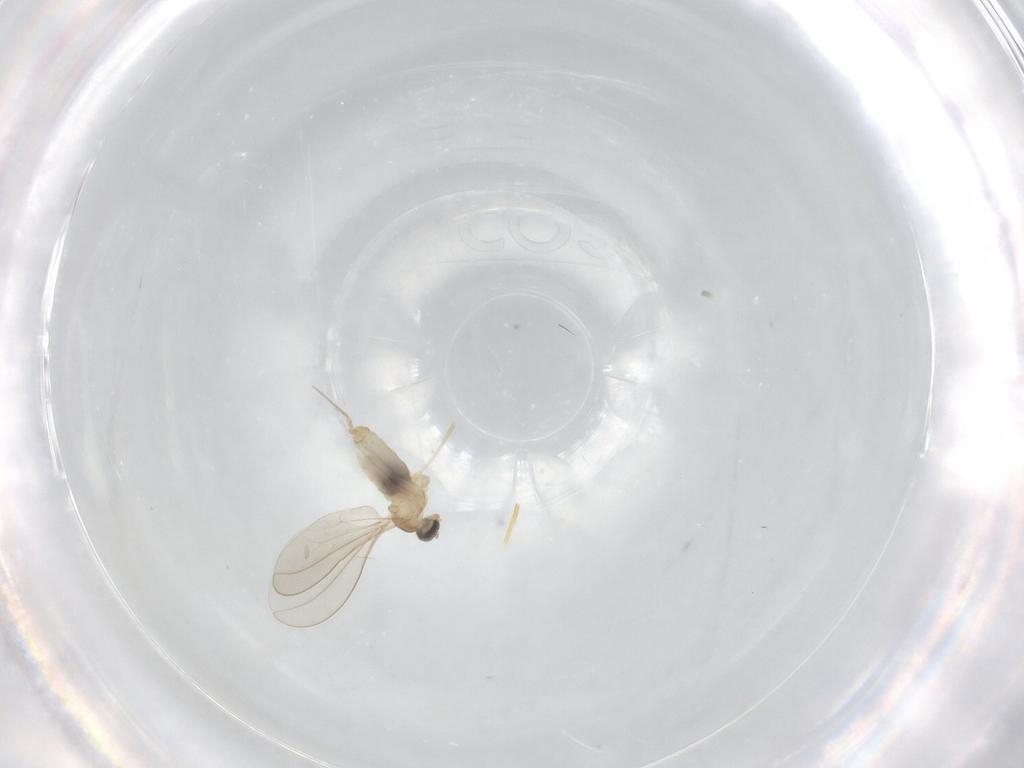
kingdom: Animalia
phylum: Arthropoda
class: Insecta
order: Diptera
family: Cecidomyiidae
